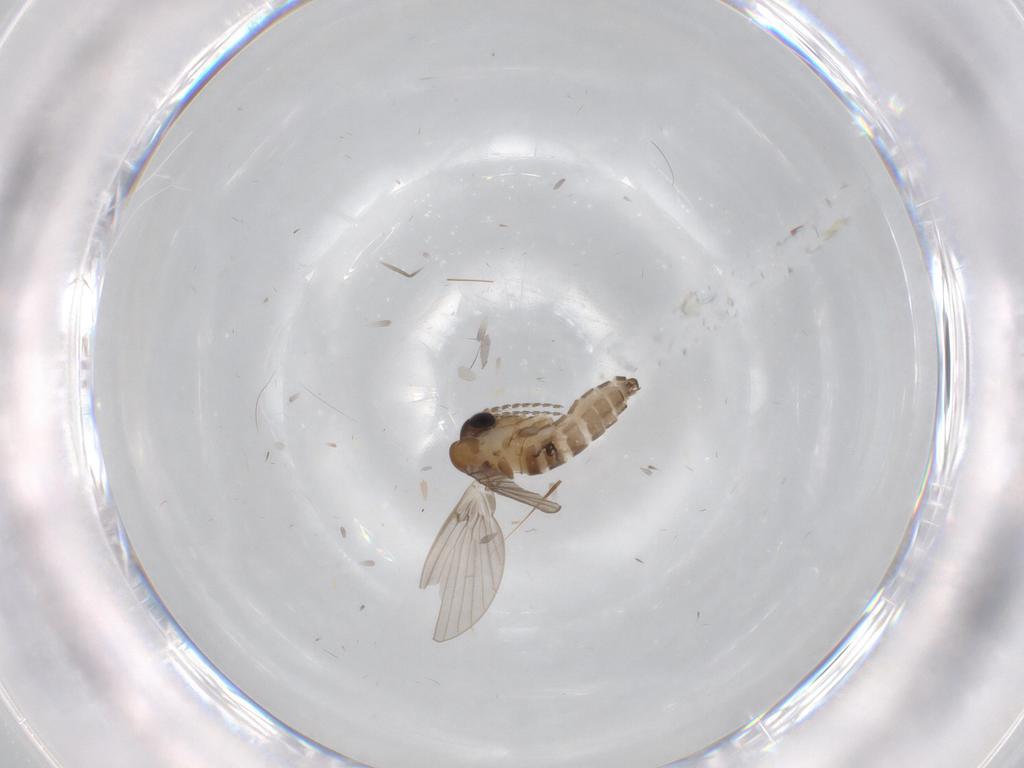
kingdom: Animalia
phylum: Arthropoda
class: Insecta
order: Diptera
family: Sciaridae
